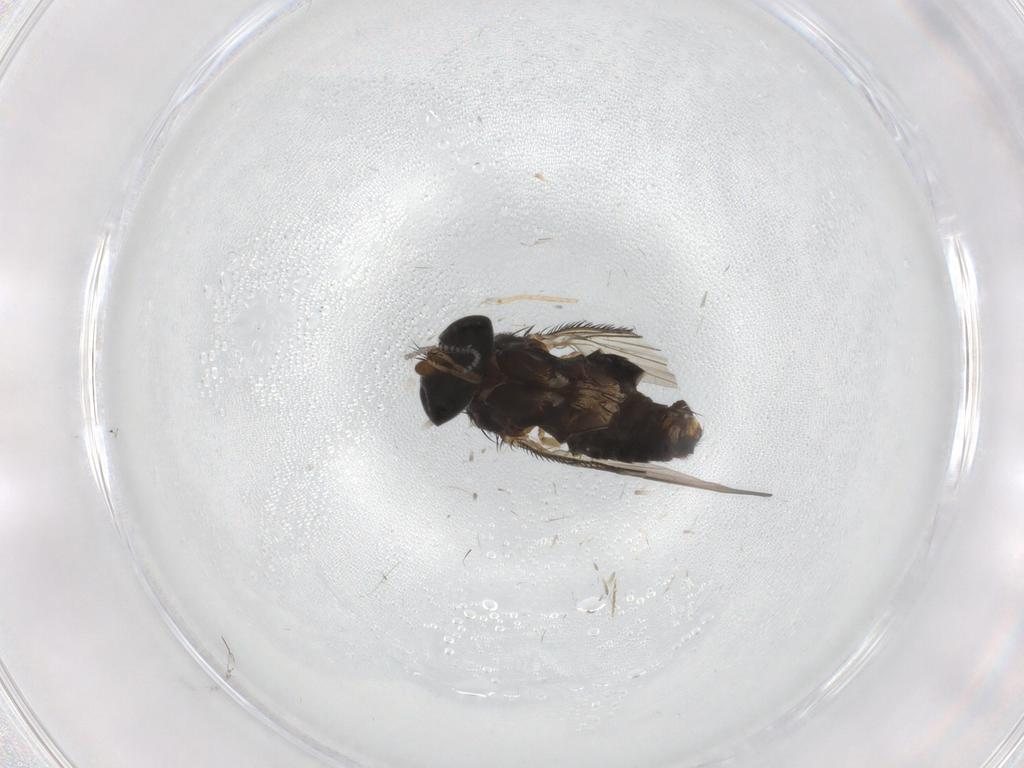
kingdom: Animalia
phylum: Arthropoda
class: Insecta
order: Diptera
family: Phoridae
